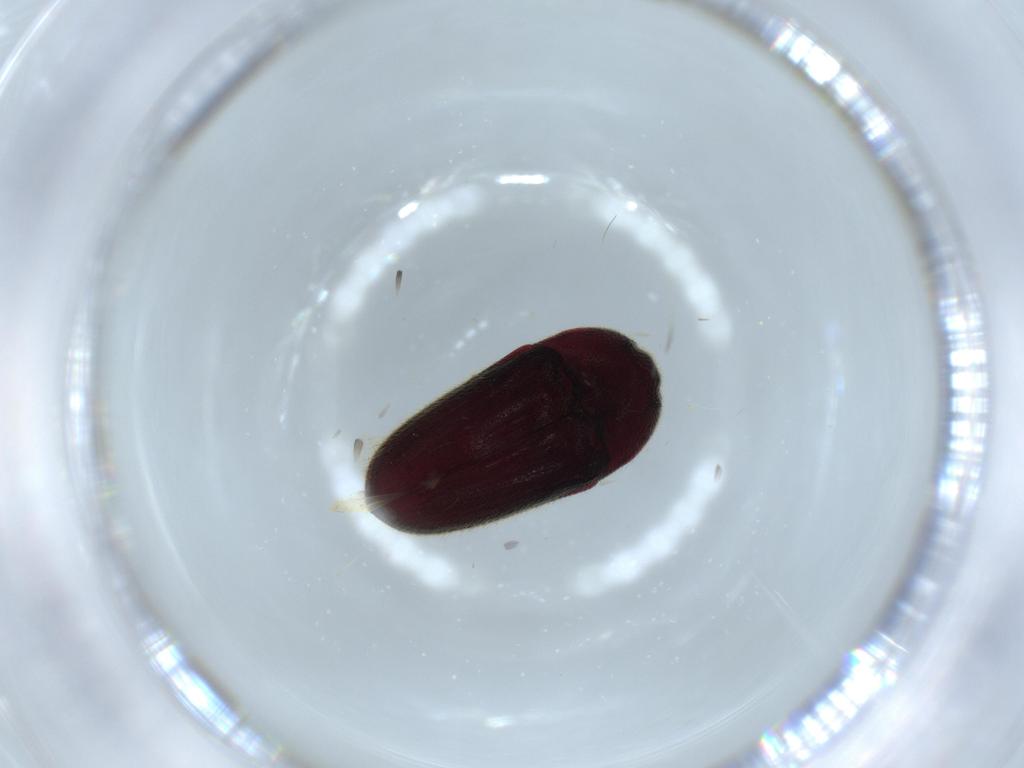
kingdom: Animalia
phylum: Arthropoda
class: Insecta
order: Coleoptera
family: Throscidae
